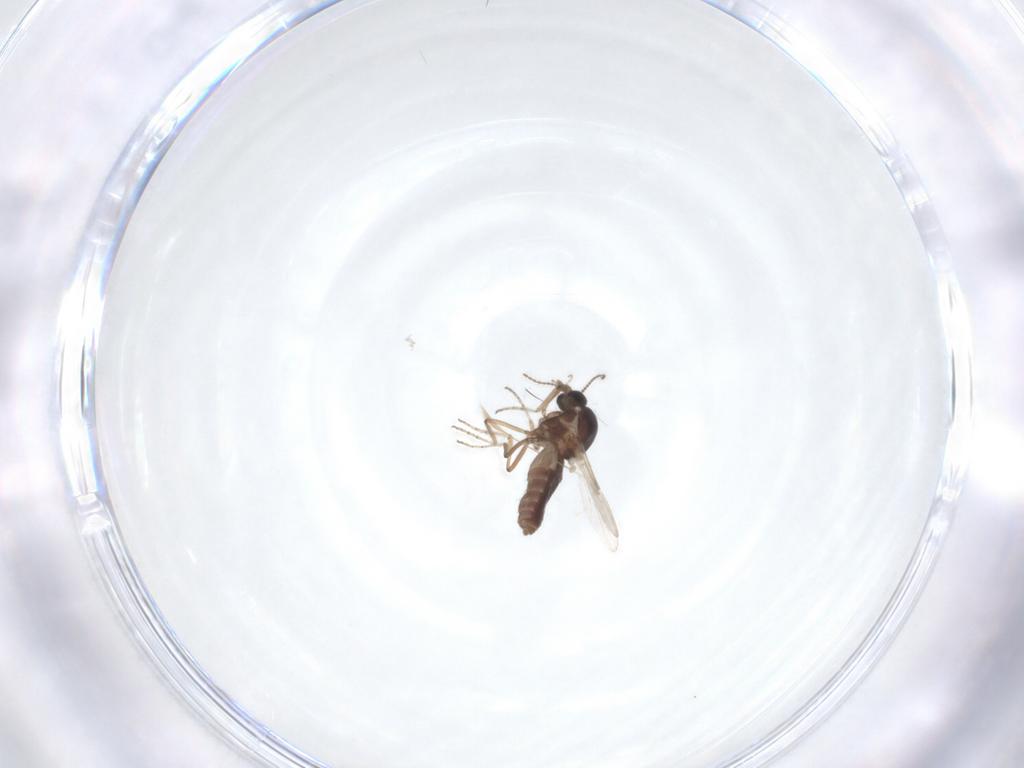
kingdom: Animalia
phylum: Arthropoda
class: Insecta
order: Diptera
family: Ceratopogonidae
